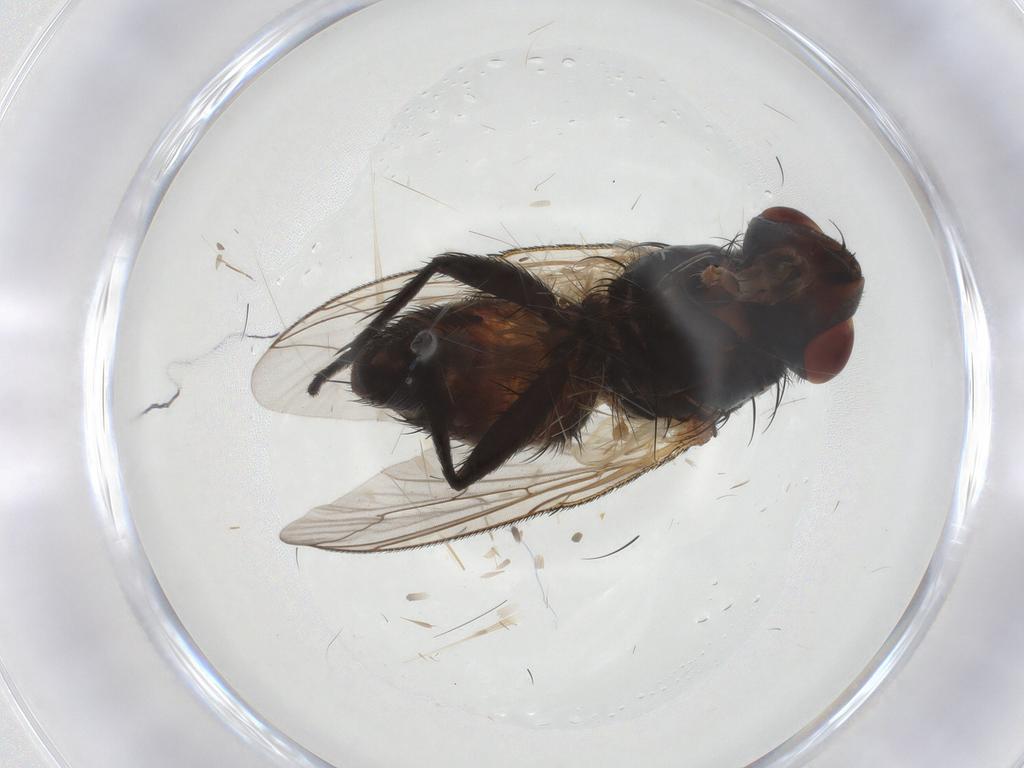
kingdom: Animalia
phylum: Arthropoda
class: Insecta
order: Diptera
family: Sarcophagidae
